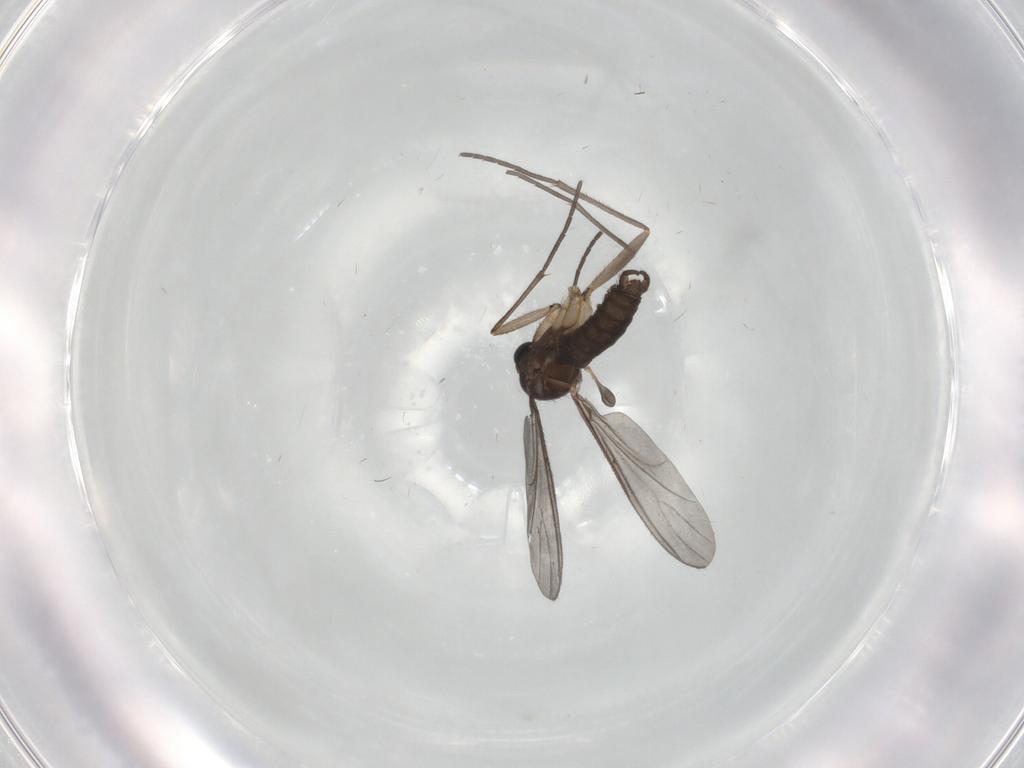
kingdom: Animalia
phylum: Arthropoda
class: Insecta
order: Diptera
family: Sciaridae
